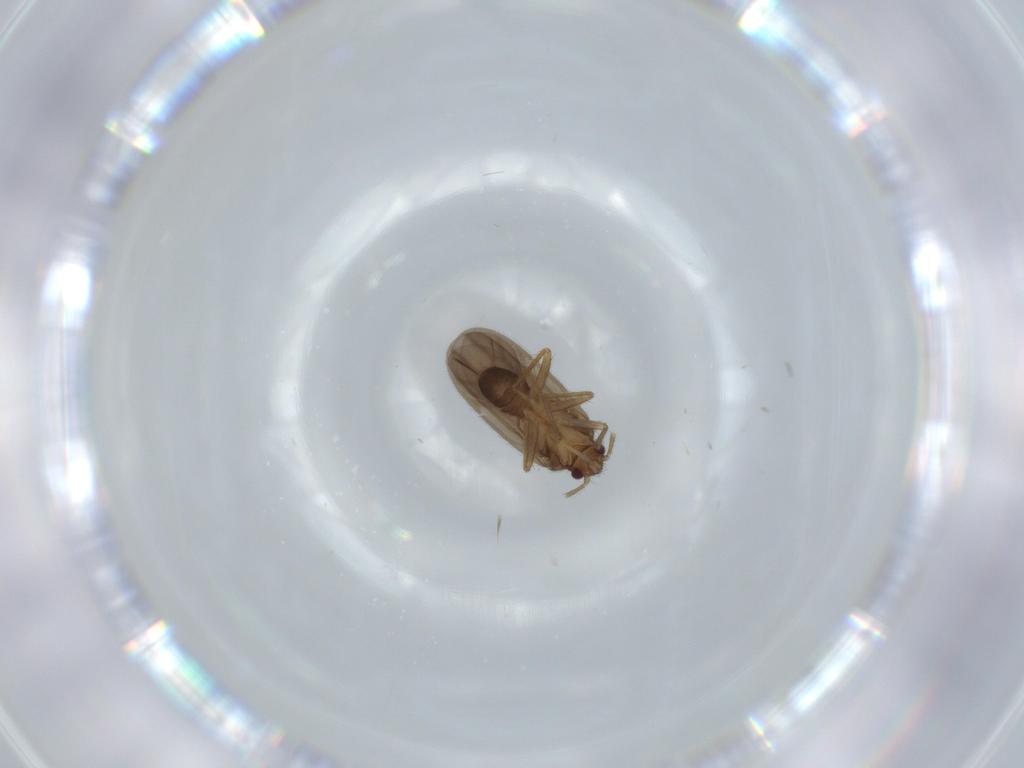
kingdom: Animalia
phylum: Arthropoda
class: Insecta
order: Hemiptera
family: Ceratocombidae
